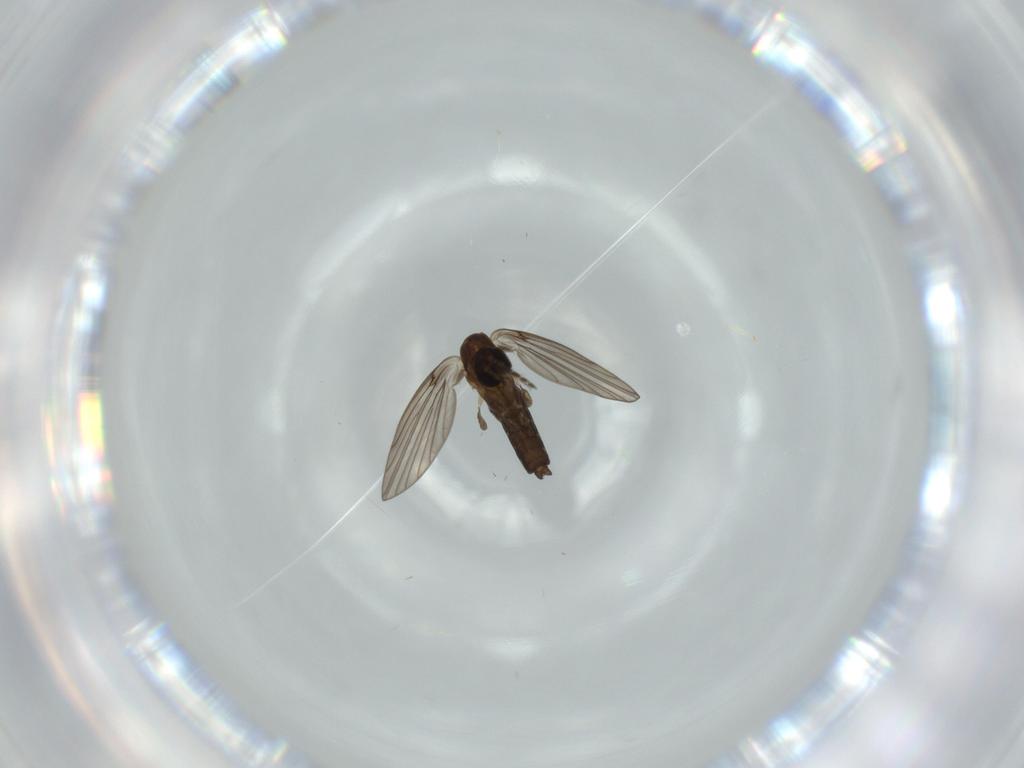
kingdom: Animalia
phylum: Arthropoda
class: Insecta
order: Diptera
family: Psychodidae
